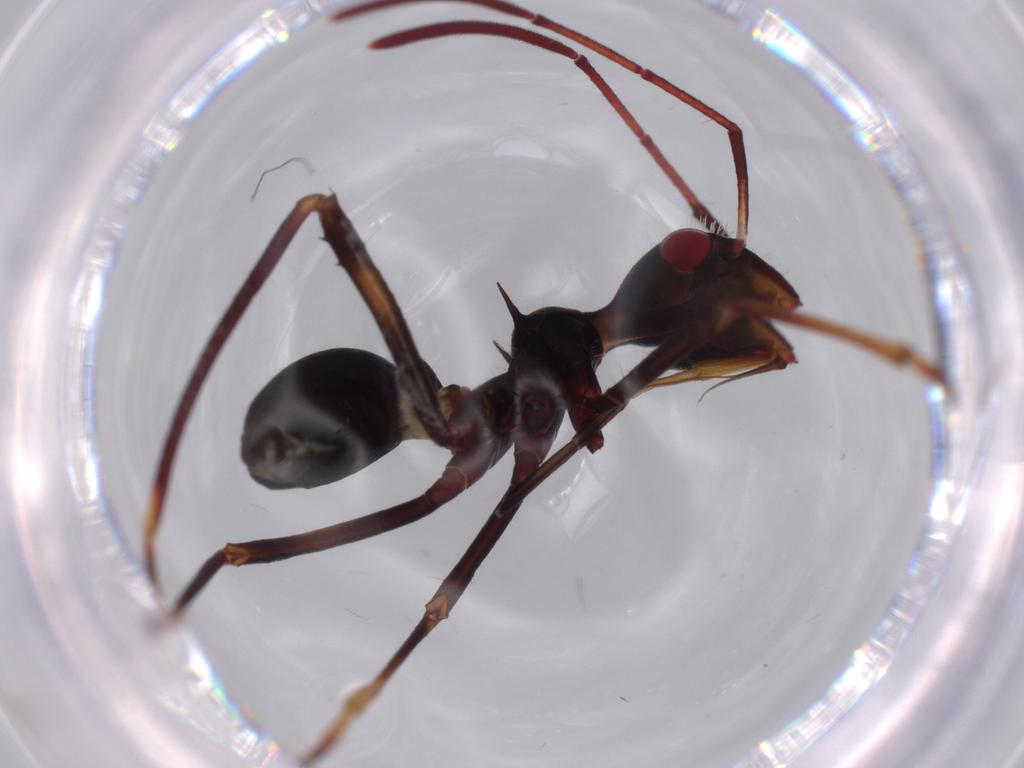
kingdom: Animalia
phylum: Arthropoda
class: Insecta
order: Hemiptera
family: Alydidae
